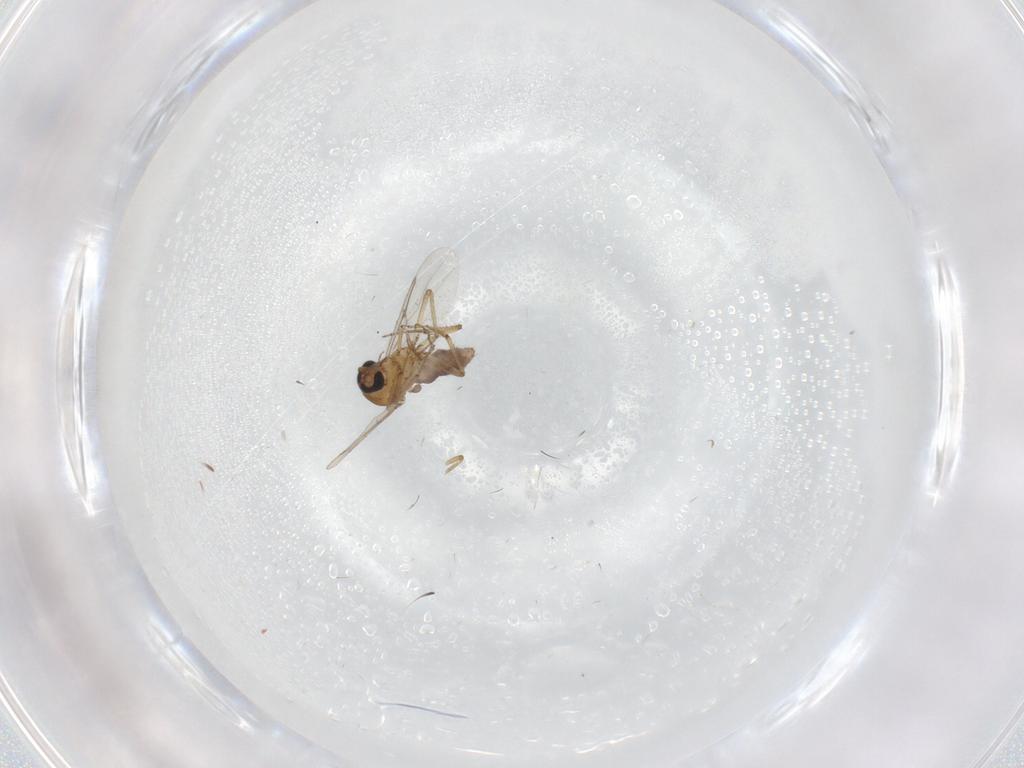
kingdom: Animalia
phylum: Arthropoda
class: Insecta
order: Diptera
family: Ceratopogonidae
